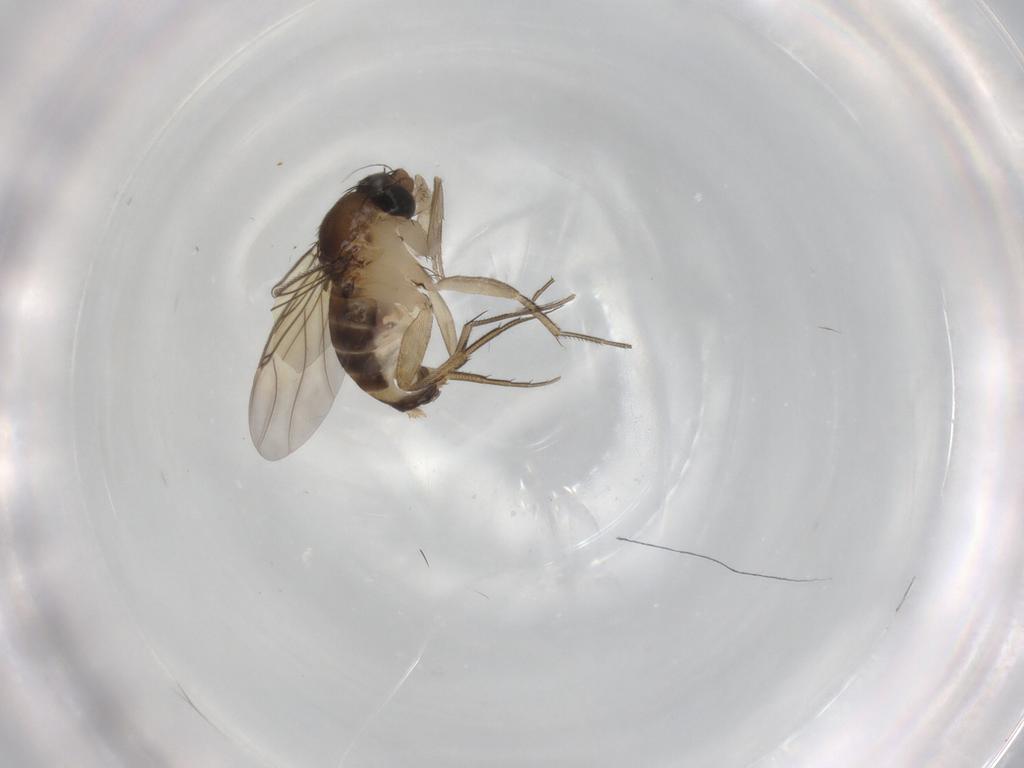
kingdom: Animalia
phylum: Arthropoda
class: Insecta
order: Blattodea
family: Ectobiidae
